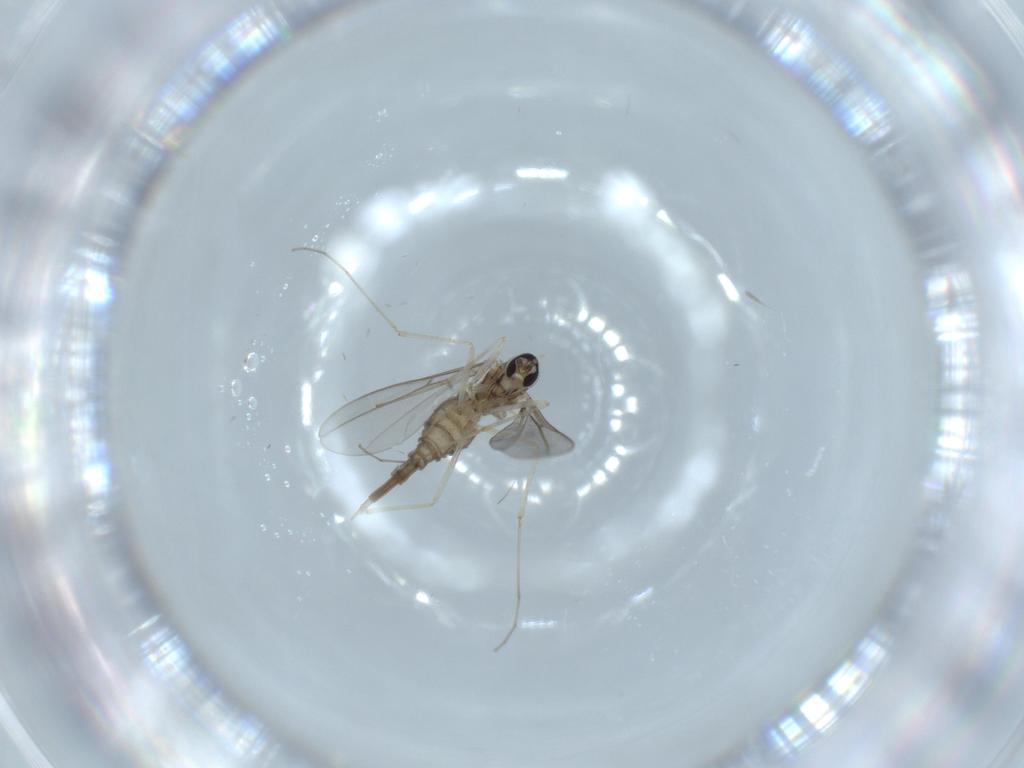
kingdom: Animalia
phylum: Arthropoda
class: Insecta
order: Diptera
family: Cecidomyiidae
